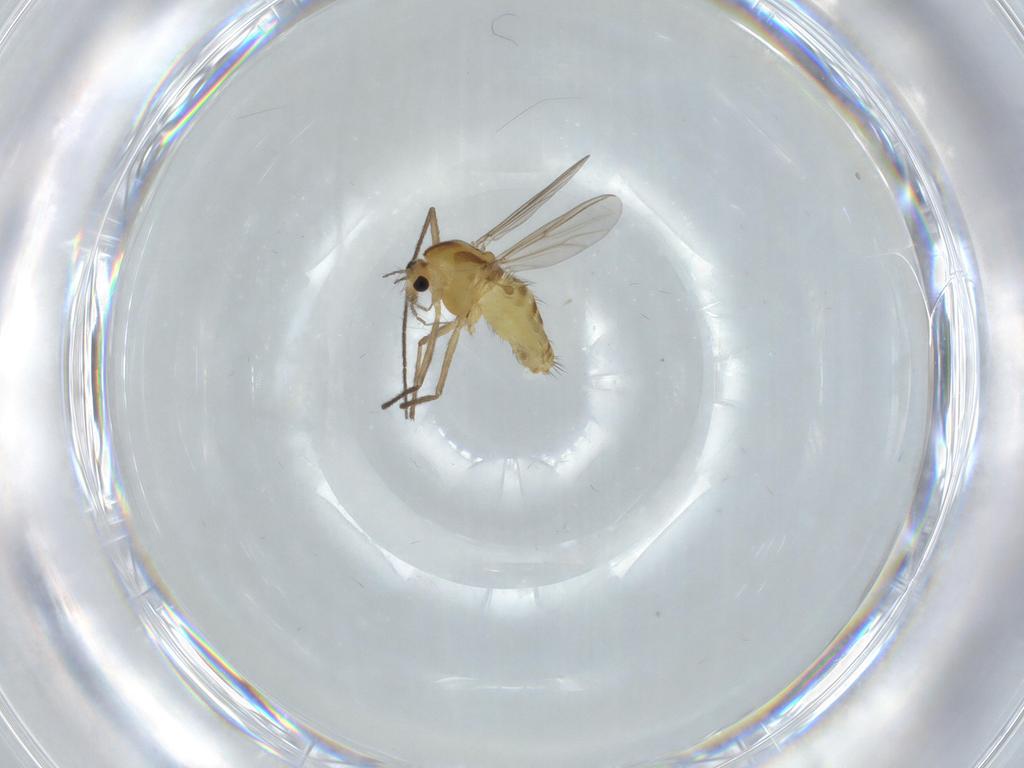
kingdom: Animalia
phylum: Arthropoda
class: Insecta
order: Diptera
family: Chironomidae
